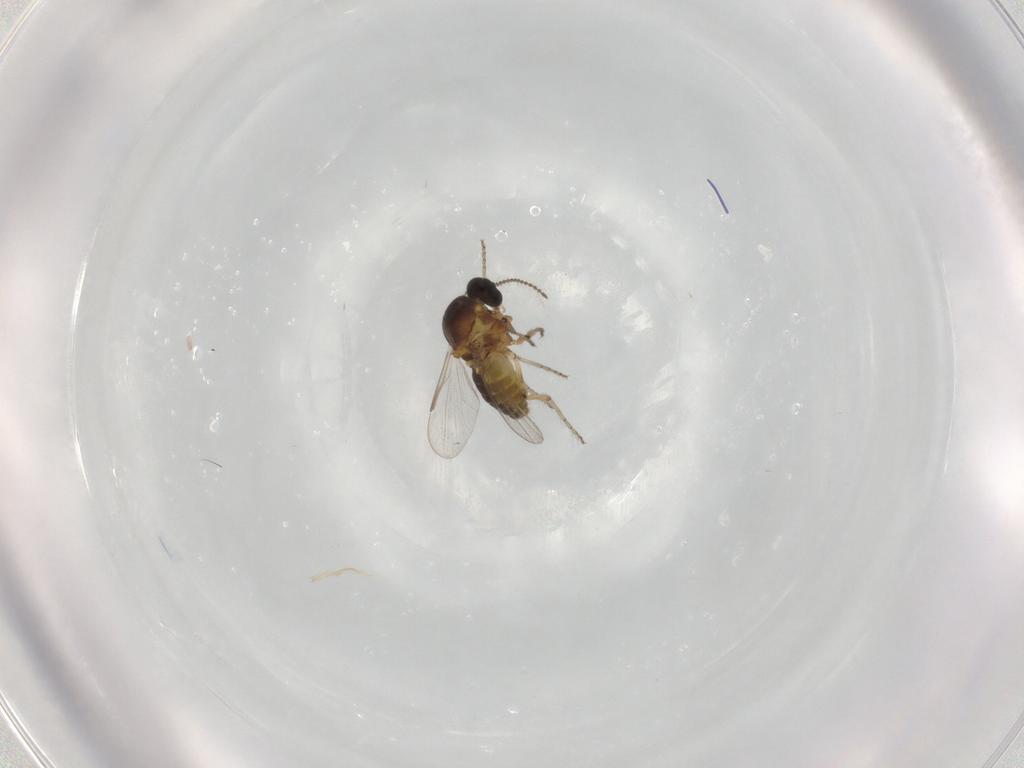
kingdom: Animalia
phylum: Arthropoda
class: Insecta
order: Diptera
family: Ceratopogonidae
